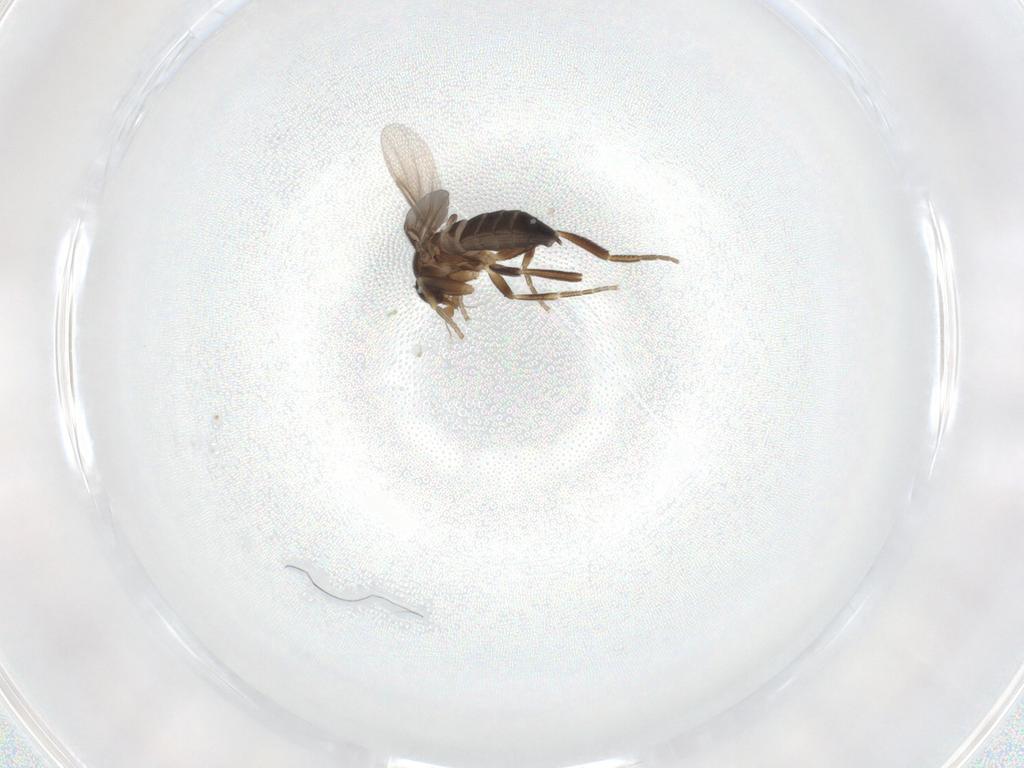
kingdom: Animalia
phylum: Arthropoda
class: Insecta
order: Diptera
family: Phoridae
